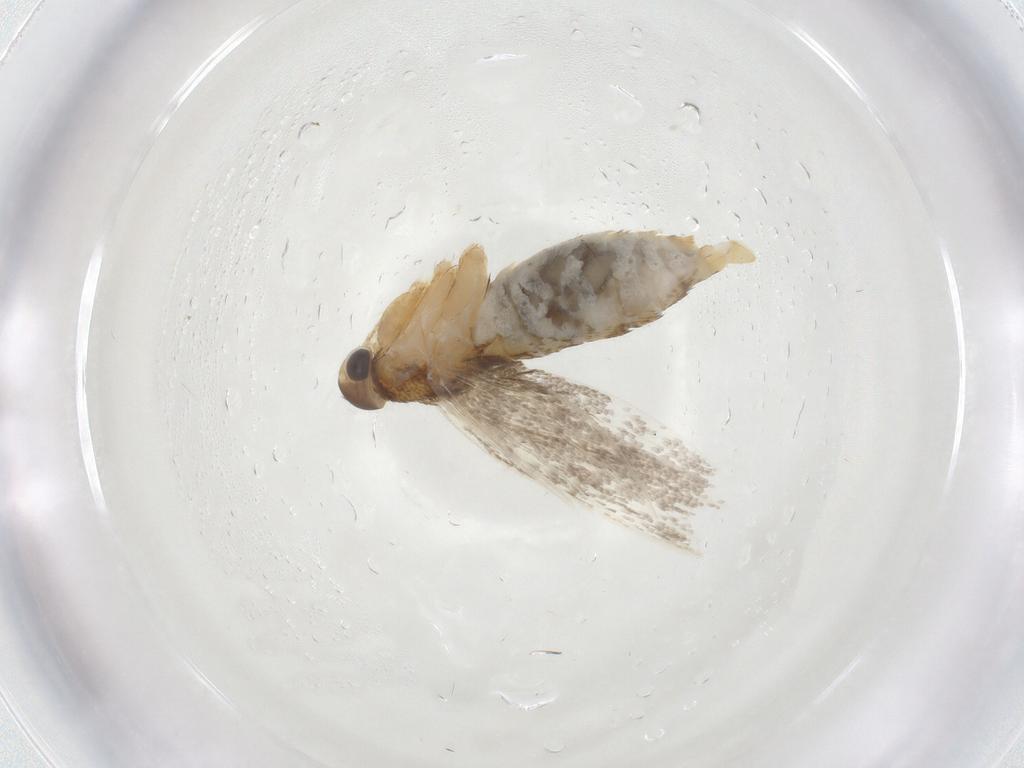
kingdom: Animalia
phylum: Arthropoda
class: Insecta
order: Lepidoptera
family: Oecophoridae
